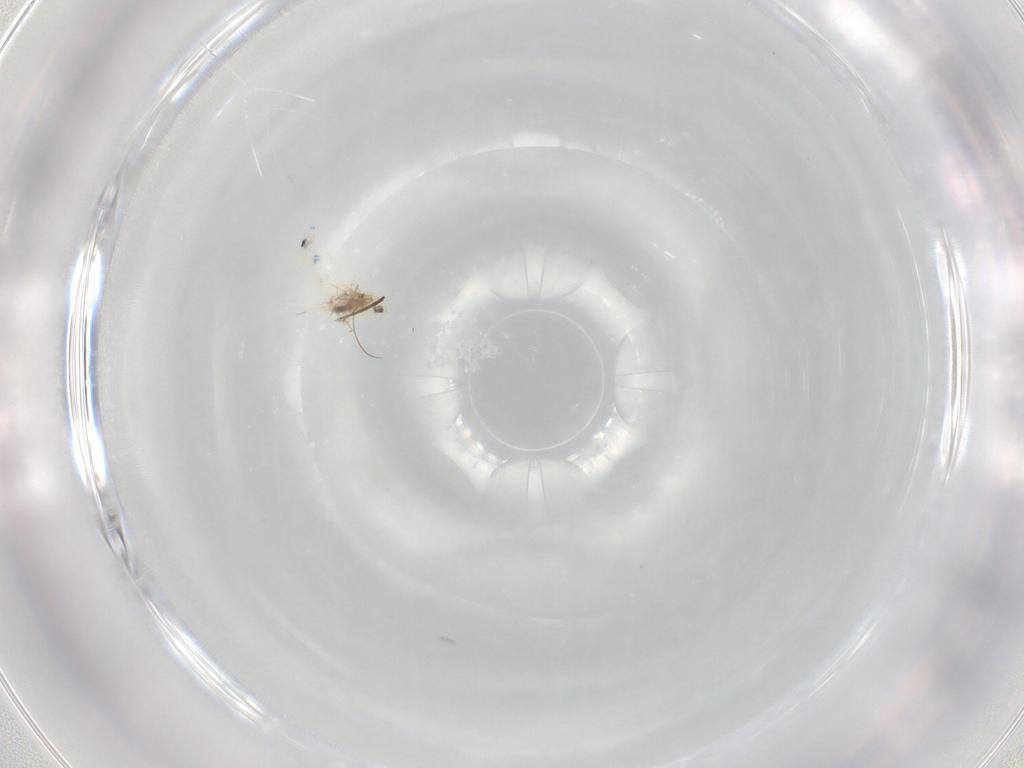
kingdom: Animalia
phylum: Arthropoda
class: Collembola
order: Entomobryomorpha
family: Entomobryidae
